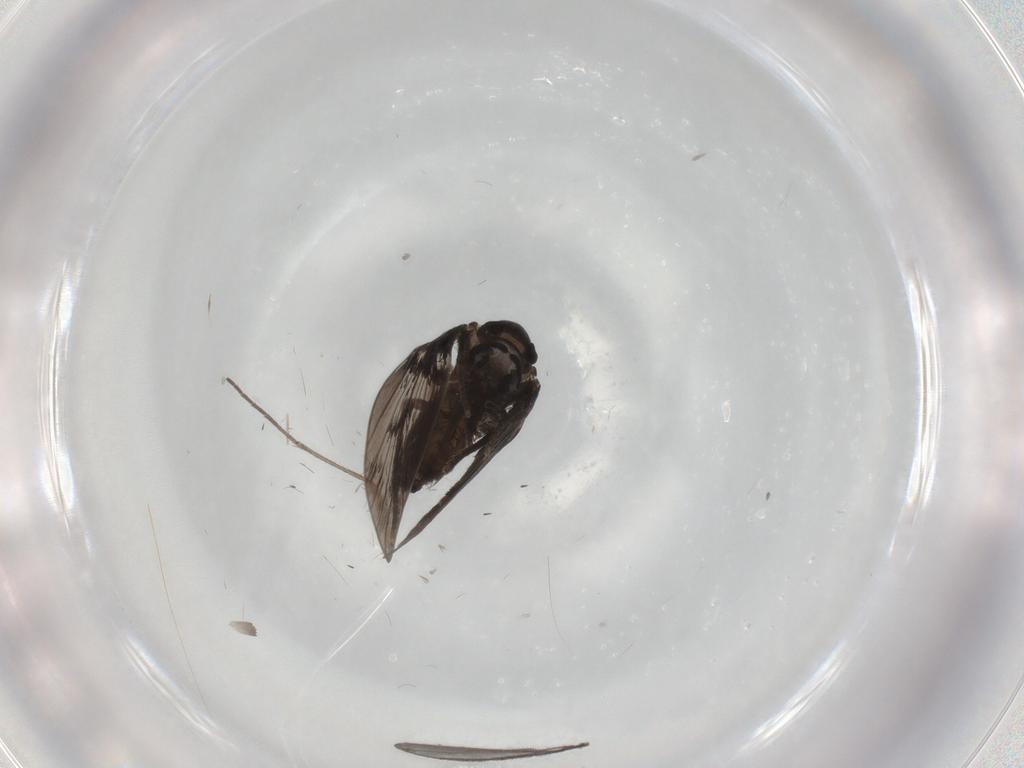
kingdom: Animalia
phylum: Arthropoda
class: Insecta
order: Diptera
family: Sciaridae
